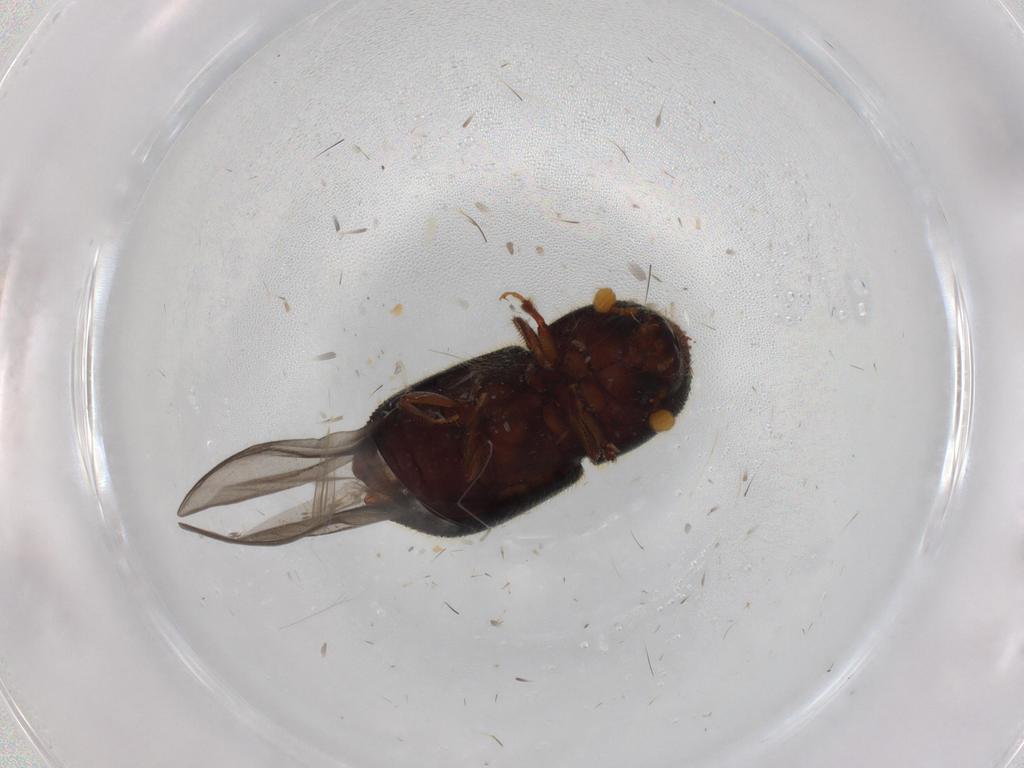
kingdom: Animalia
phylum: Arthropoda
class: Insecta
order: Coleoptera
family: Curculionidae
